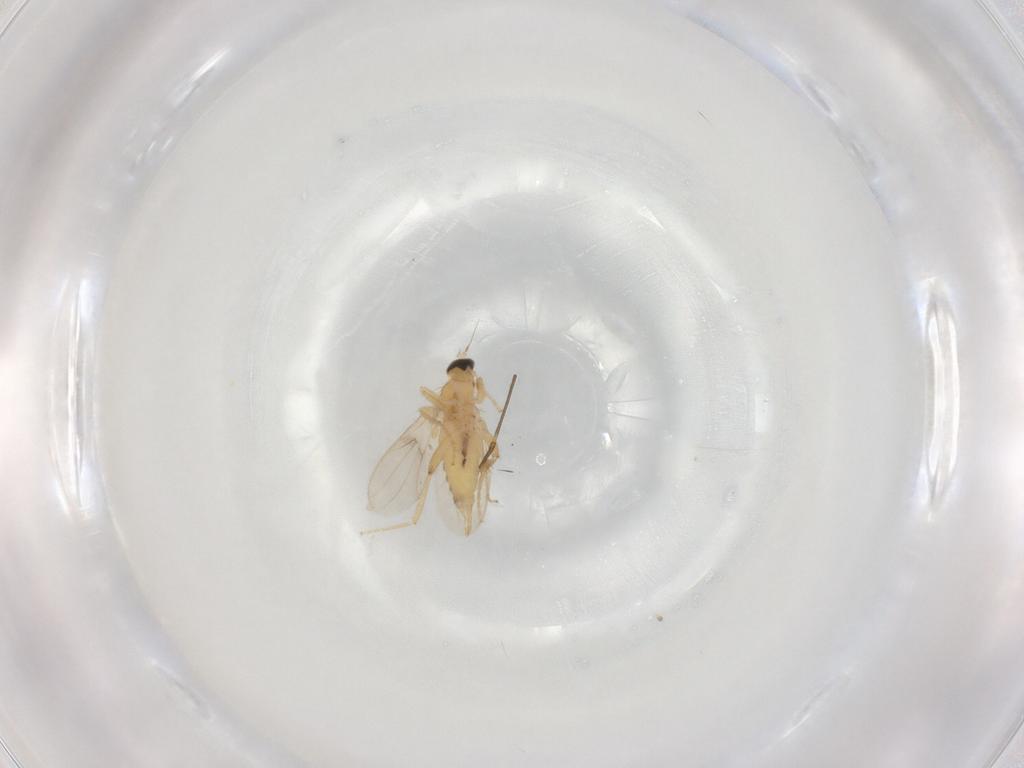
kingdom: Animalia
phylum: Arthropoda
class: Insecta
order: Diptera
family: Hybotidae
